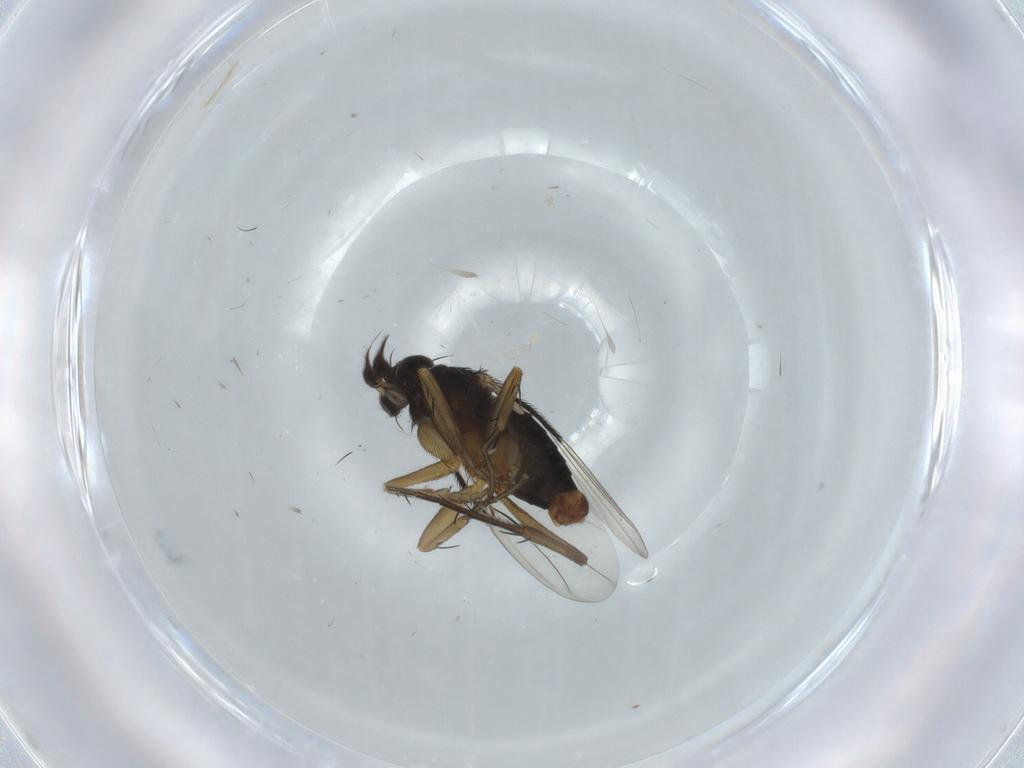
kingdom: Animalia
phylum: Arthropoda
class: Insecta
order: Diptera
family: Phoridae
